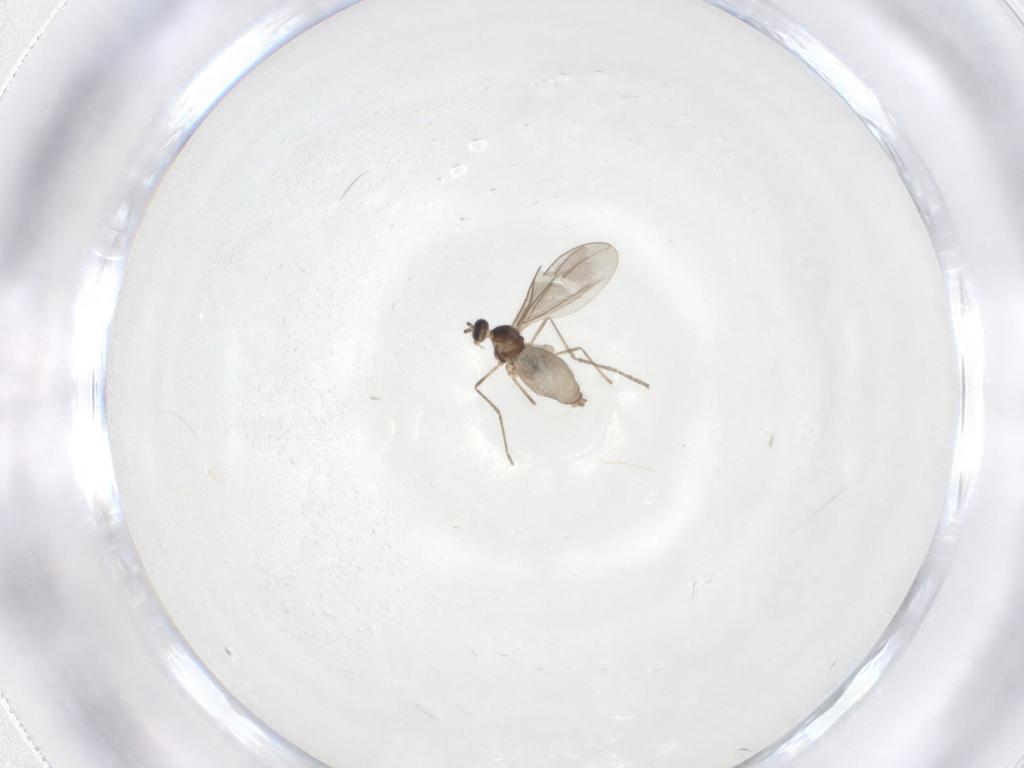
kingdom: Animalia
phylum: Arthropoda
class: Insecta
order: Diptera
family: Cecidomyiidae
